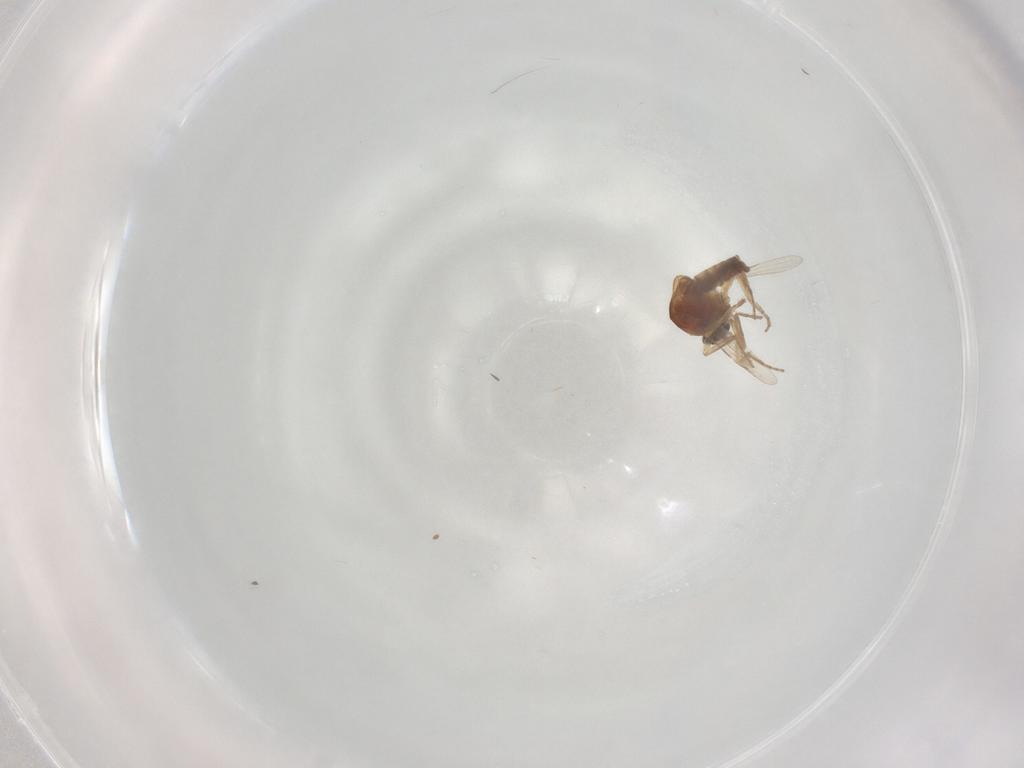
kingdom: Animalia
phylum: Arthropoda
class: Insecta
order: Diptera
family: Ceratopogonidae
